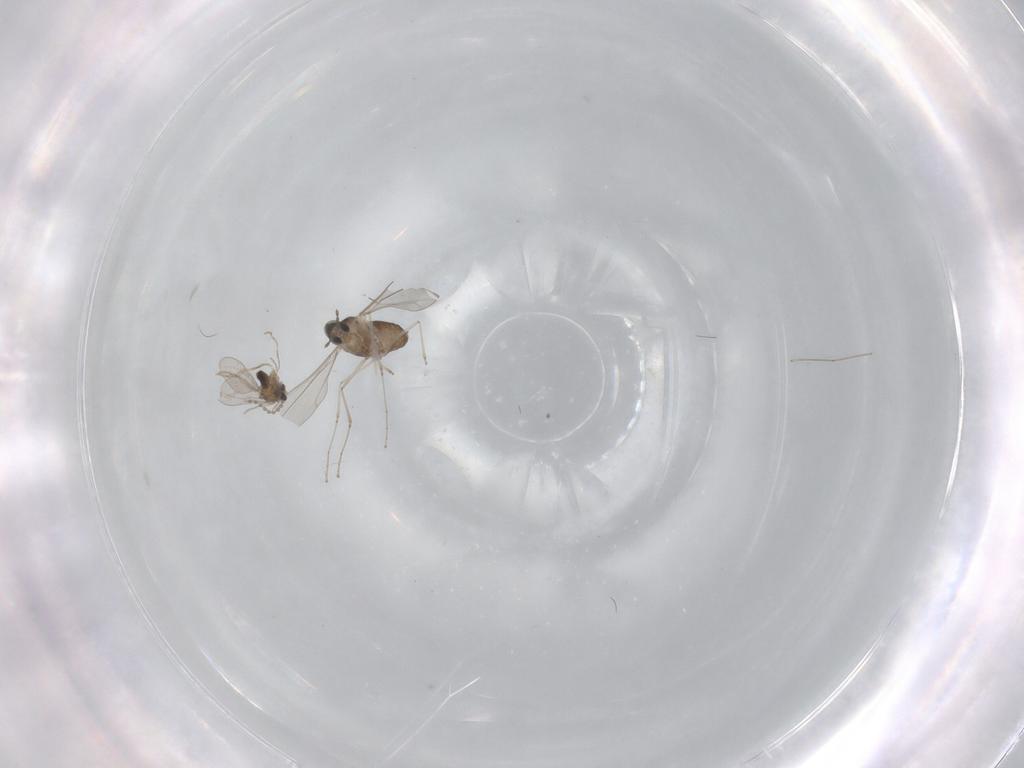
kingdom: Animalia
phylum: Arthropoda
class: Insecta
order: Diptera
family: Cecidomyiidae
